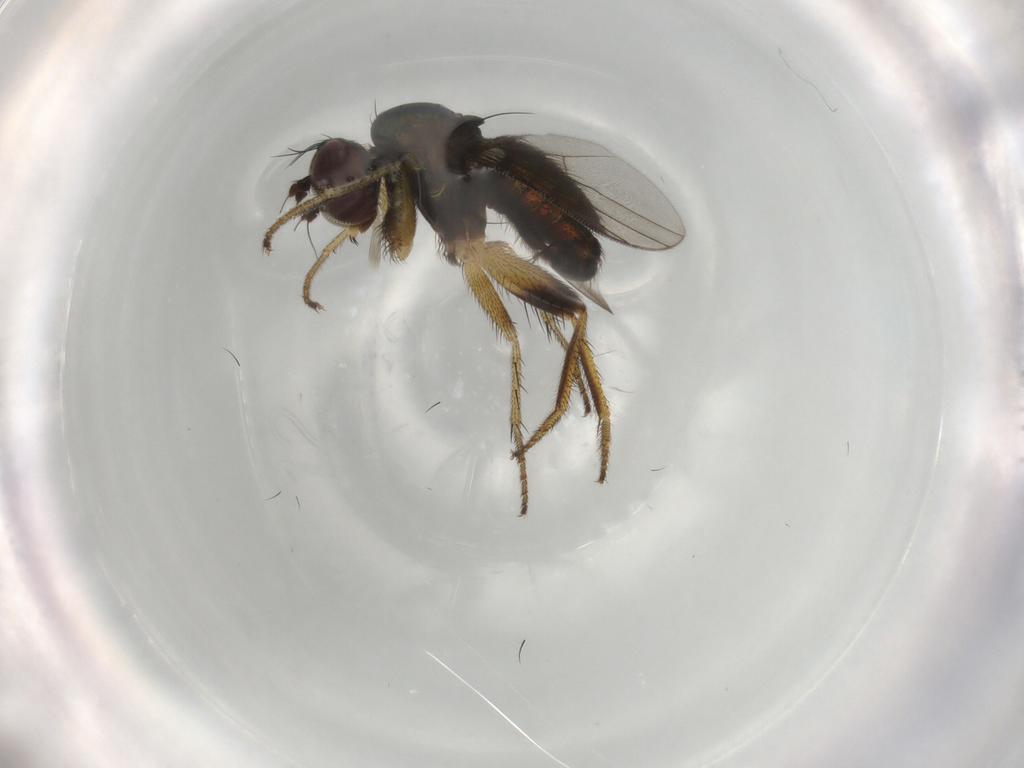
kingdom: Animalia
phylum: Arthropoda
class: Insecta
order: Diptera
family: Dolichopodidae
